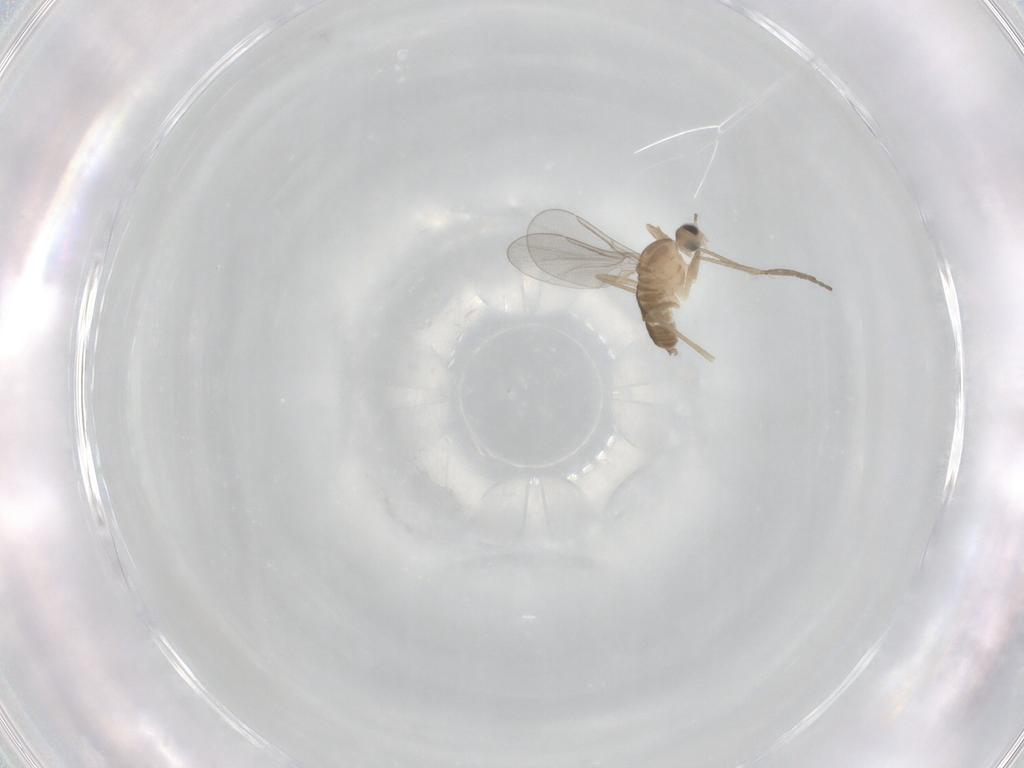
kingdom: Animalia
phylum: Arthropoda
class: Insecta
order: Diptera
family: Cecidomyiidae
